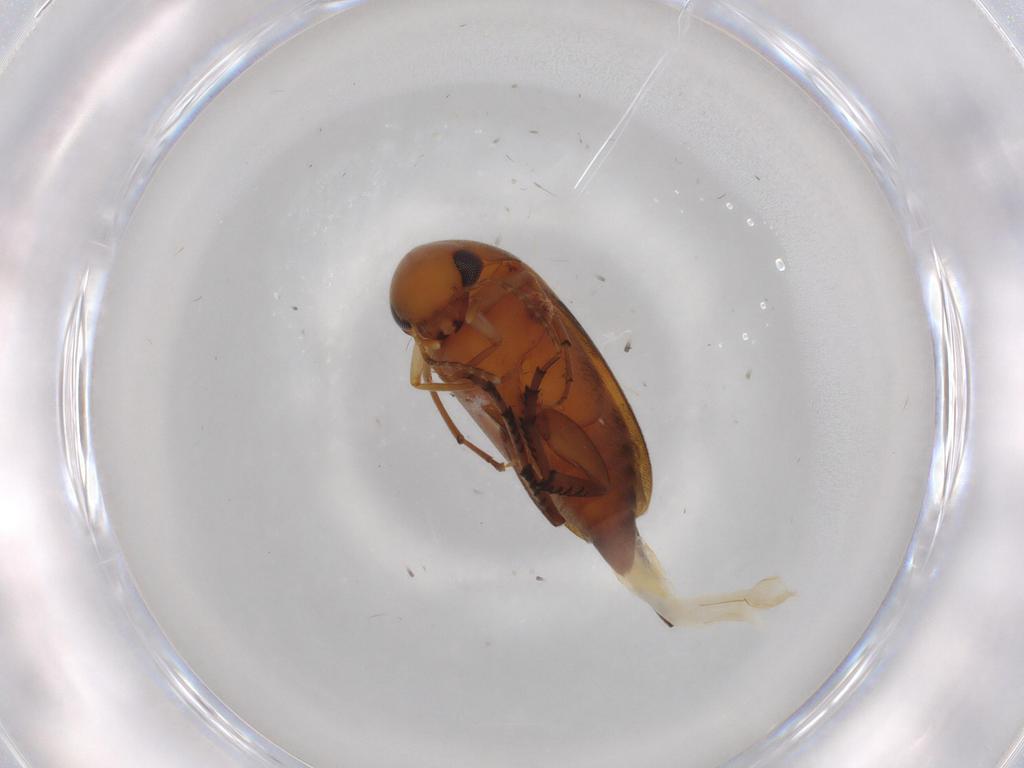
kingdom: Animalia
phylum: Arthropoda
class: Insecta
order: Coleoptera
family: Mordellidae
